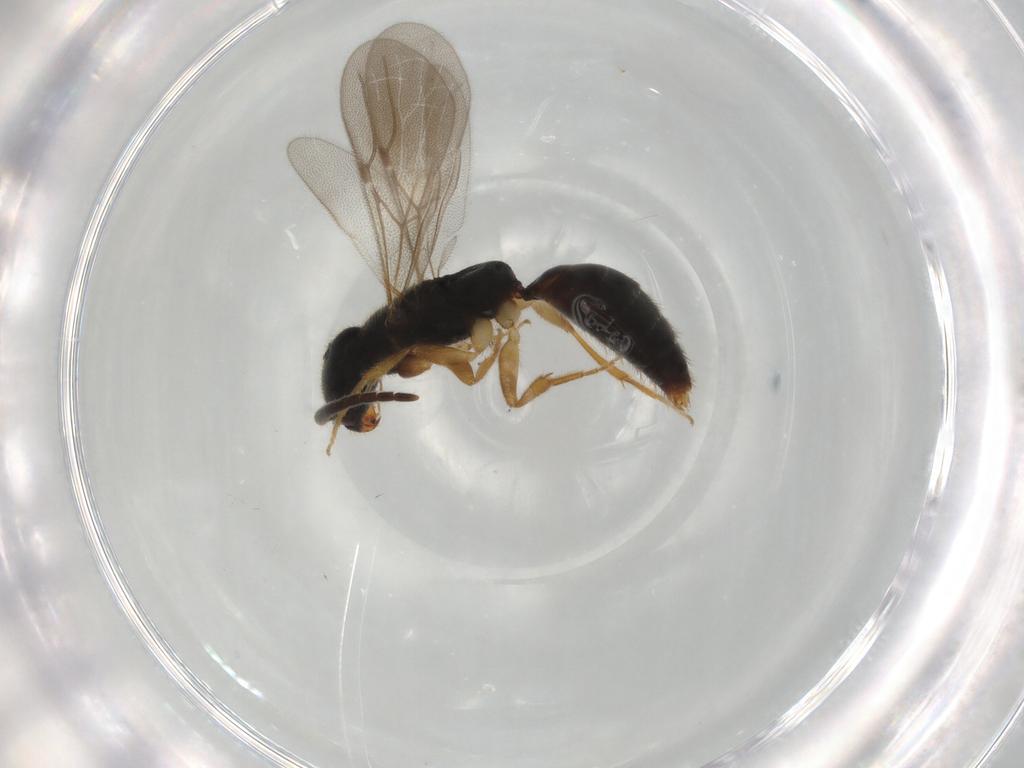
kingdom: Animalia
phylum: Arthropoda
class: Insecta
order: Hymenoptera
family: Bethylidae
